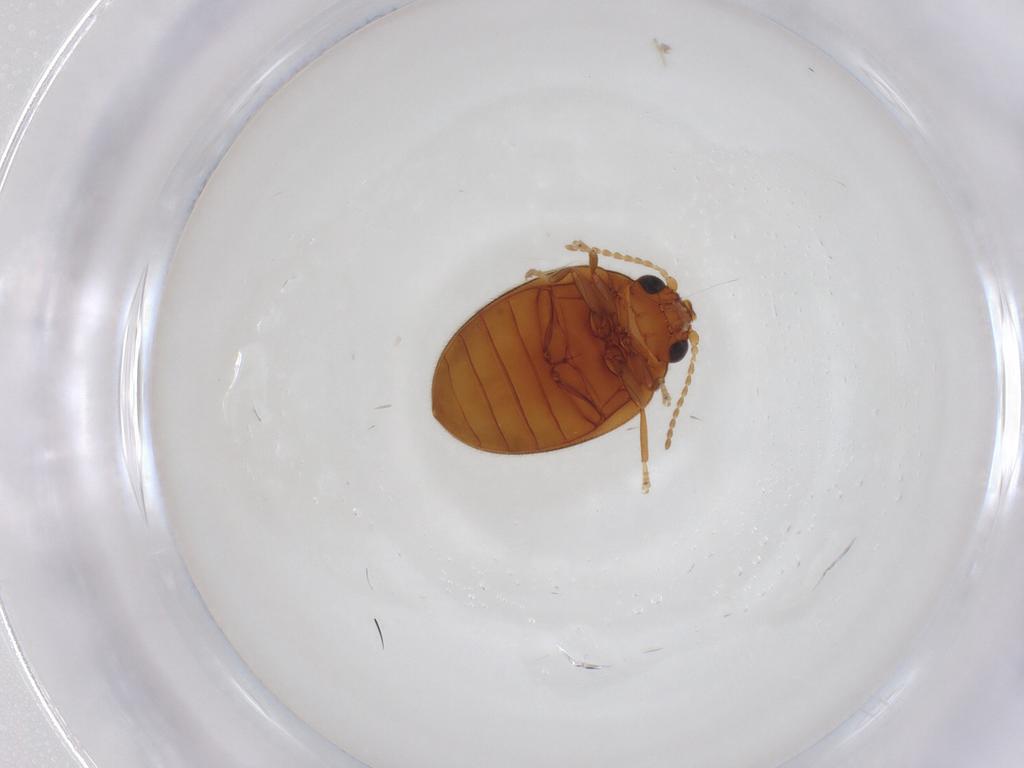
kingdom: Animalia
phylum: Arthropoda
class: Insecta
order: Coleoptera
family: Scirtidae
